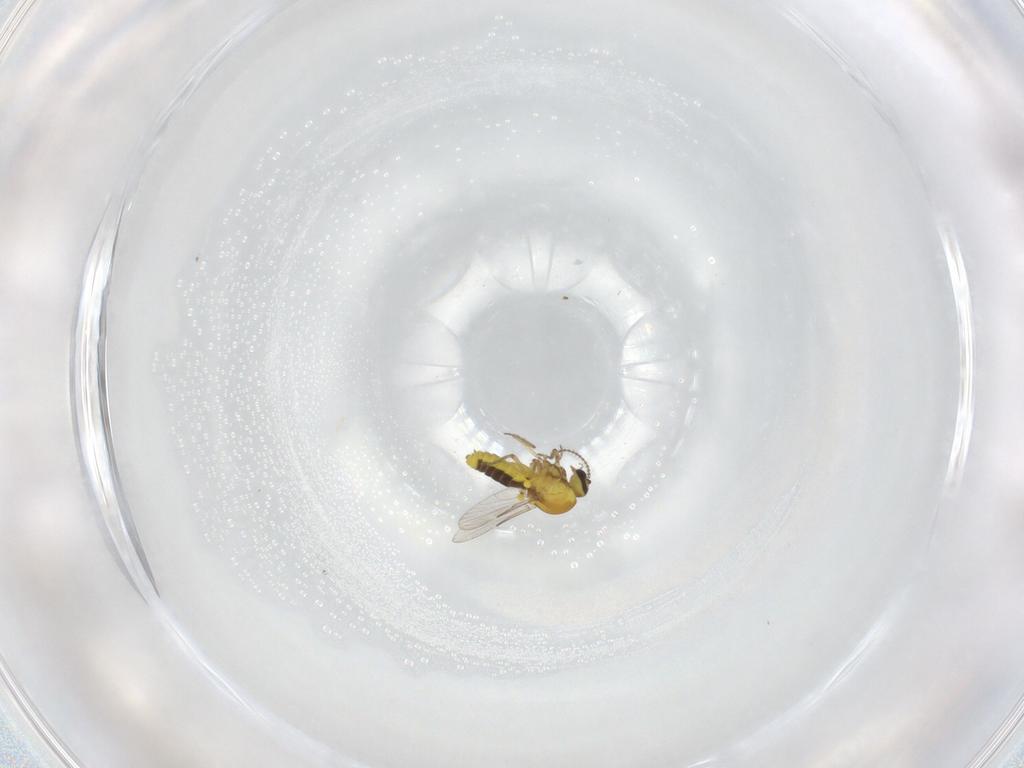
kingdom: Animalia
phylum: Arthropoda
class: Insecta
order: Diptera
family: Ceratopogonidae
